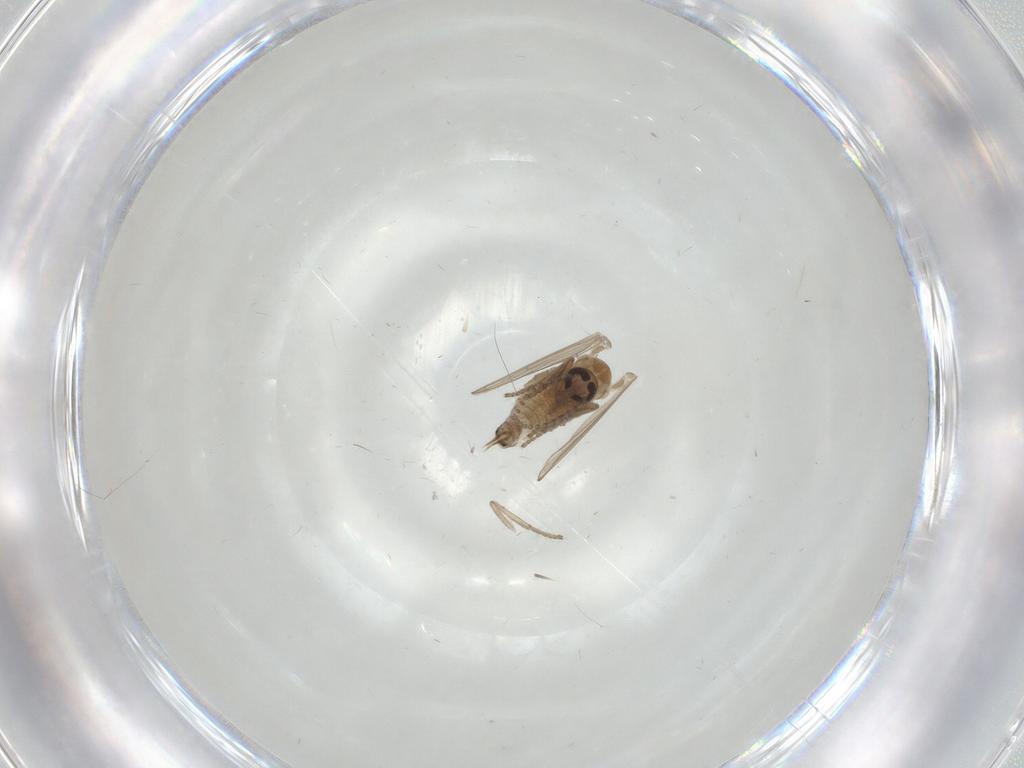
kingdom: Animalia
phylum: Arthropoda
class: Insecta
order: Diptera
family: Psychodidae
